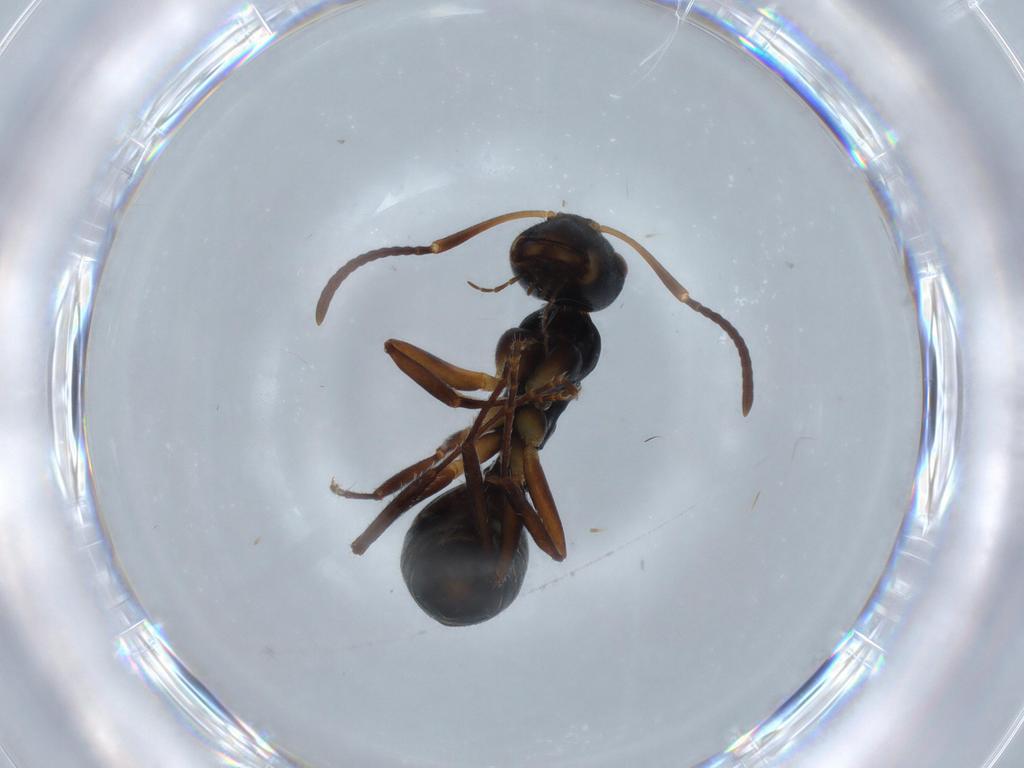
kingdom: Animalia
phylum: Arthropoda
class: Insecta
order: Hymenoptera
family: Formicidae
